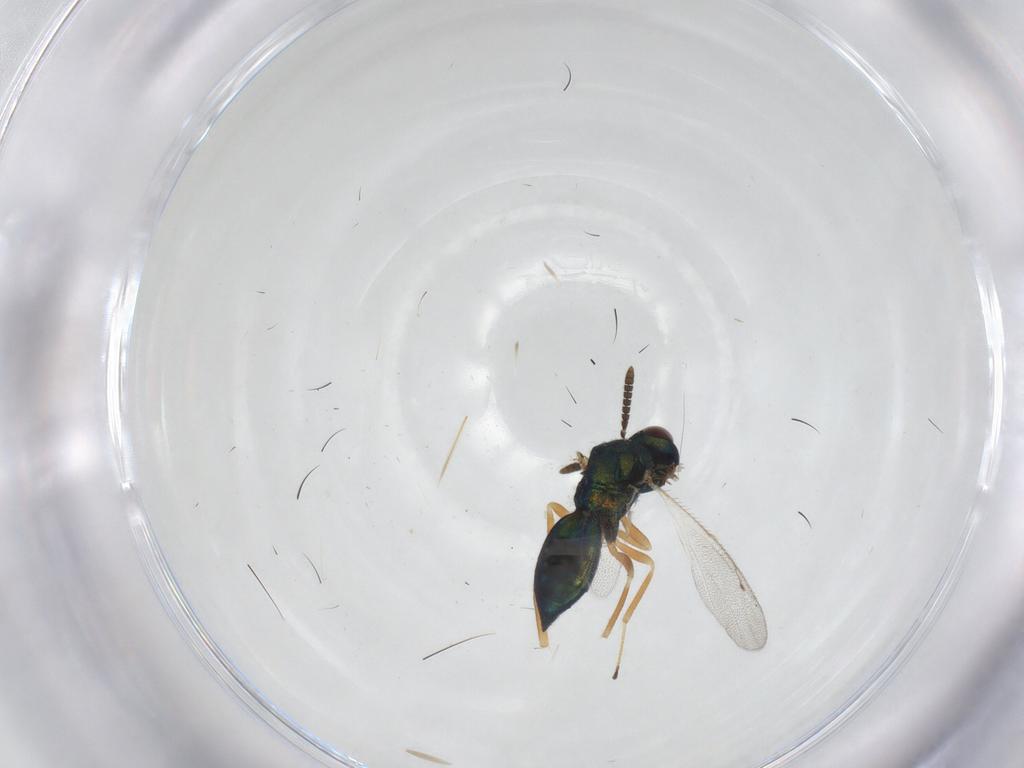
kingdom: Animalia
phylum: Arthropoda
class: Insecta
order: Hymenoptera
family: Pteromalidae
